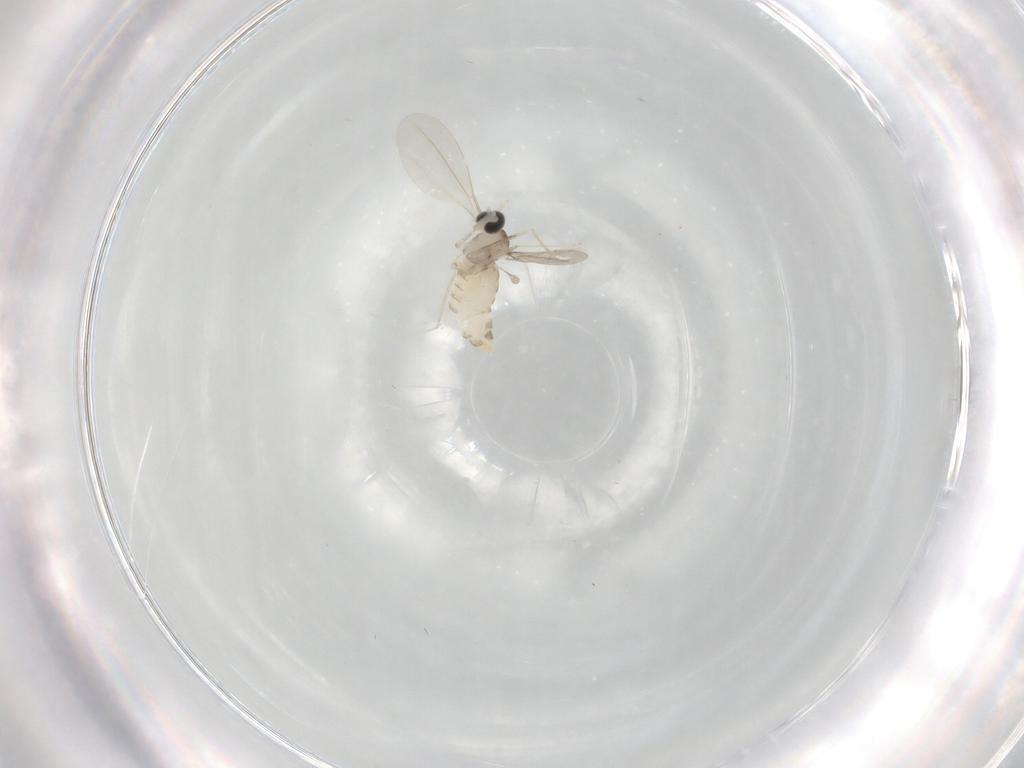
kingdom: Animalia
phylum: Arthropoda
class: Insecta
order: Diptera
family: Cecidomyiidae
